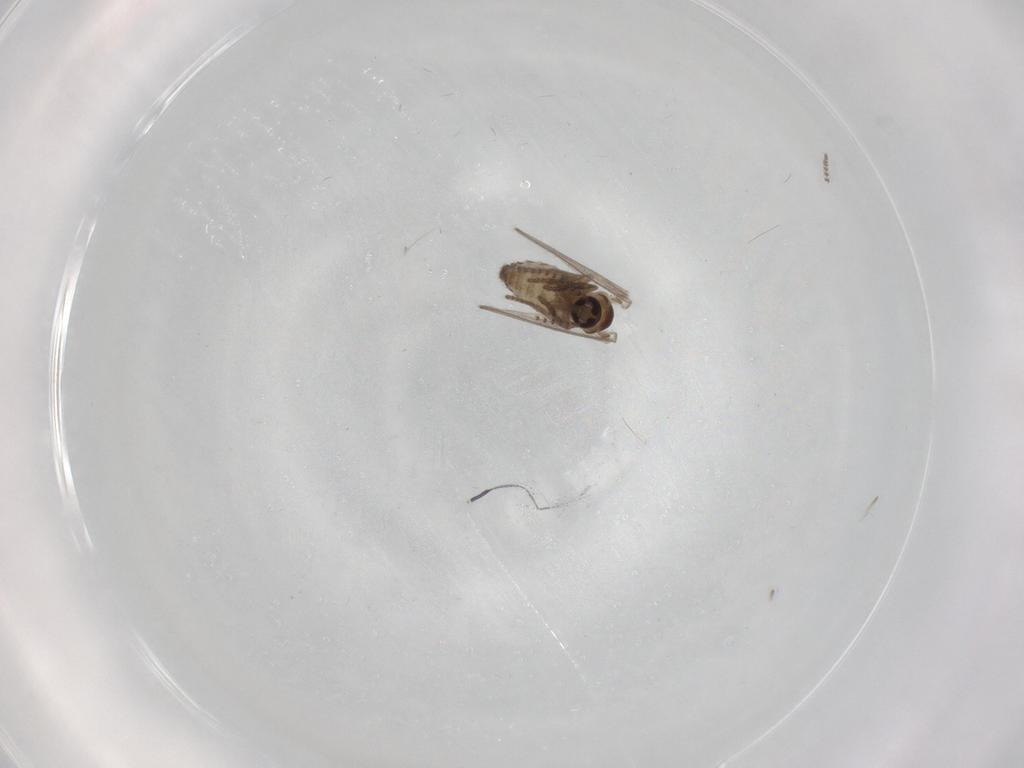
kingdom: Animalia
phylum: Arthropoda
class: Insecta
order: Diptera
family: Psychodidae
